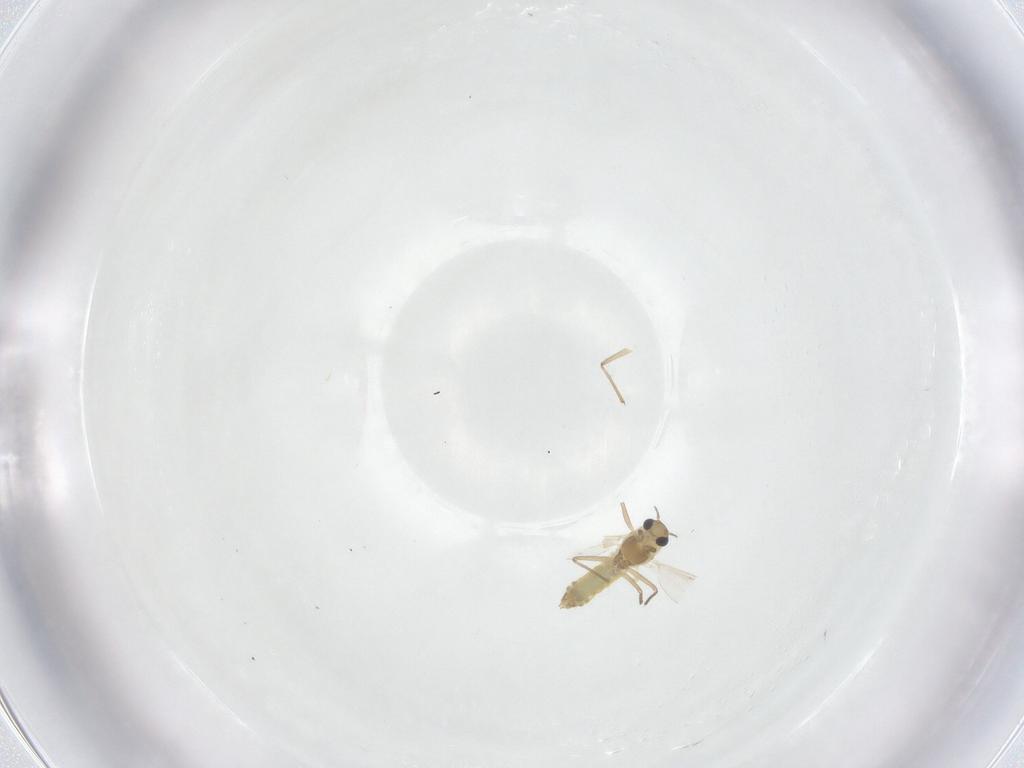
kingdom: Animalia
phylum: Arthropoda
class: Insecta
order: Diptera
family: Chironomidae
